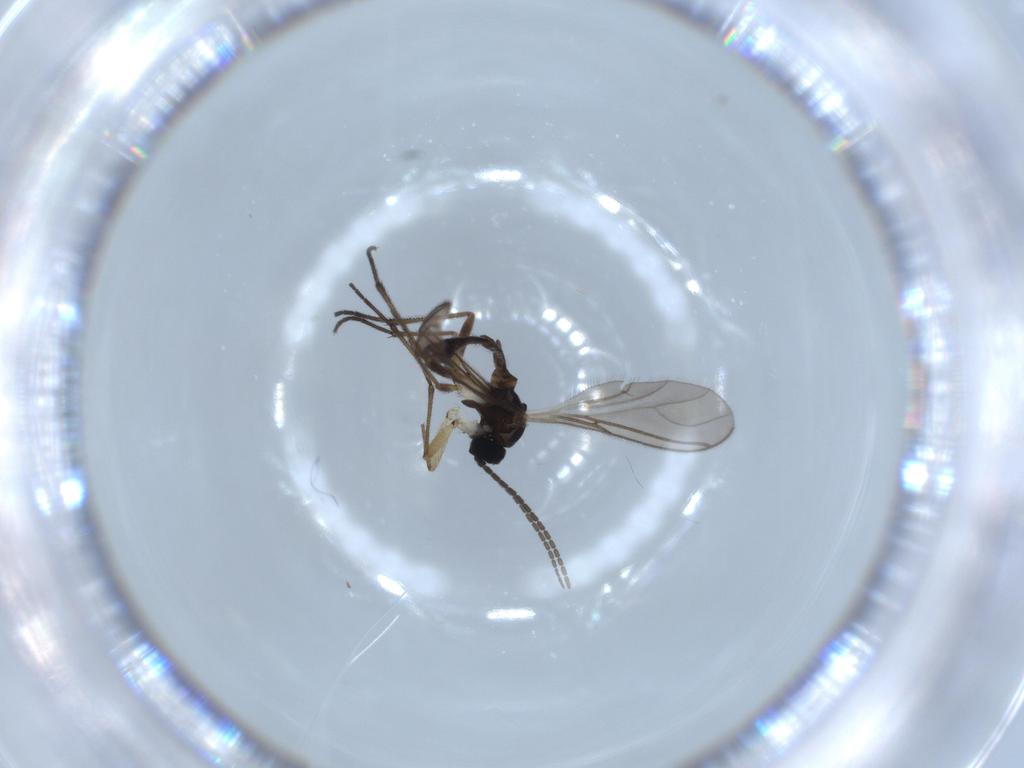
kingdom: Animalia
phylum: Arthropoda
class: Insecta
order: Diptera
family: Sciaridae
